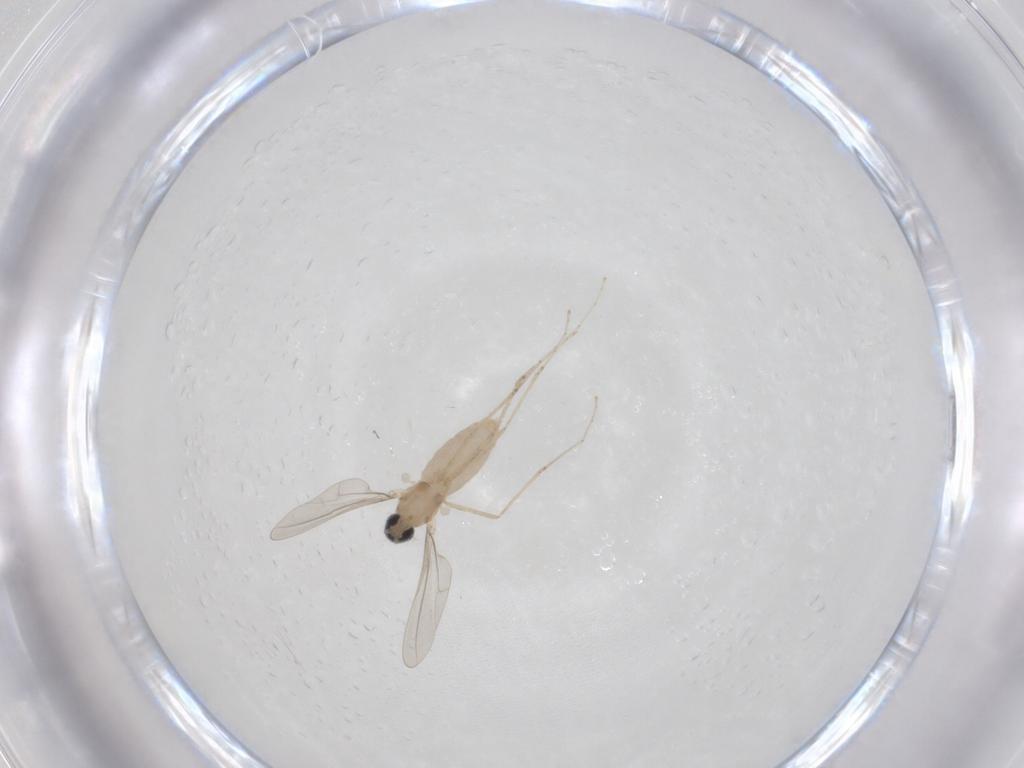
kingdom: Animalia
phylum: Arthropoda
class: Insecta
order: Diptera
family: Cecidomyiidae
